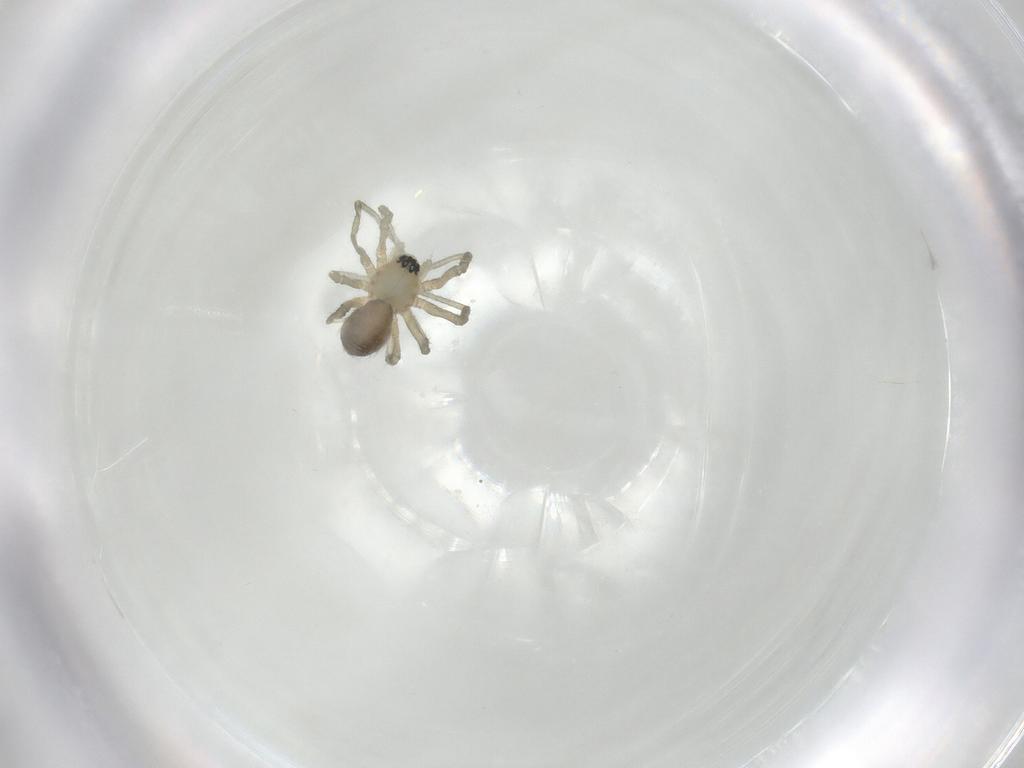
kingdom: Animalia
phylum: Arthropoda
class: Arachnida
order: Araneae
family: Linyphiidae
